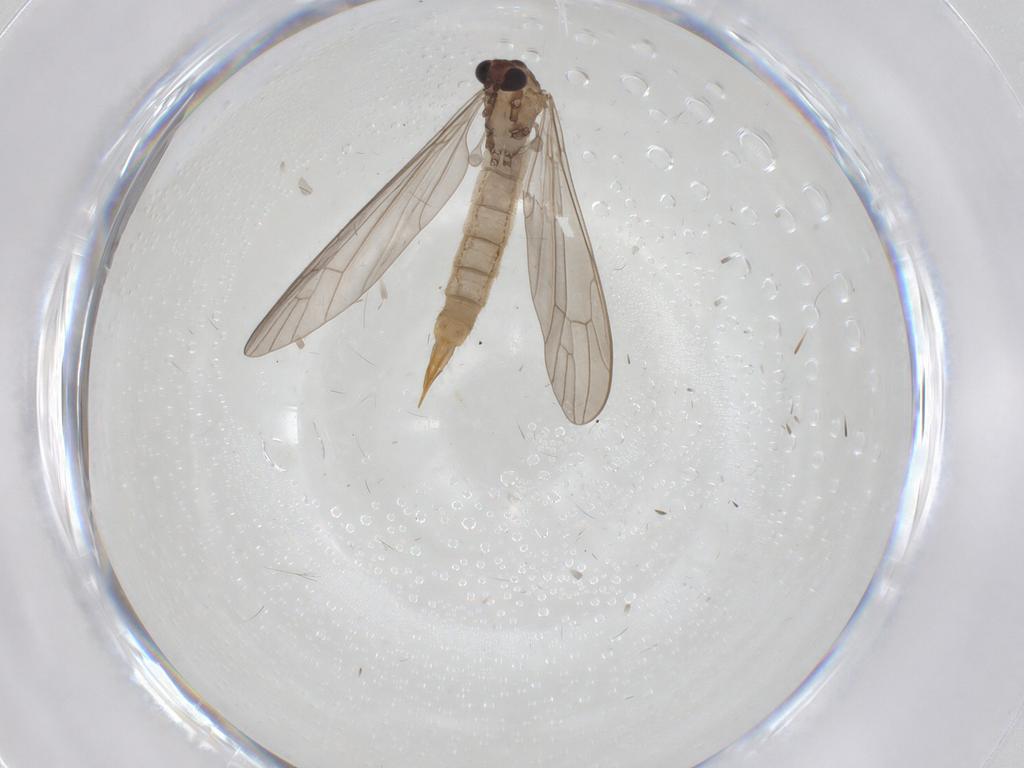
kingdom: Animalia
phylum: Arthropoda
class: Insecta
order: Diptera
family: Limoniidae
